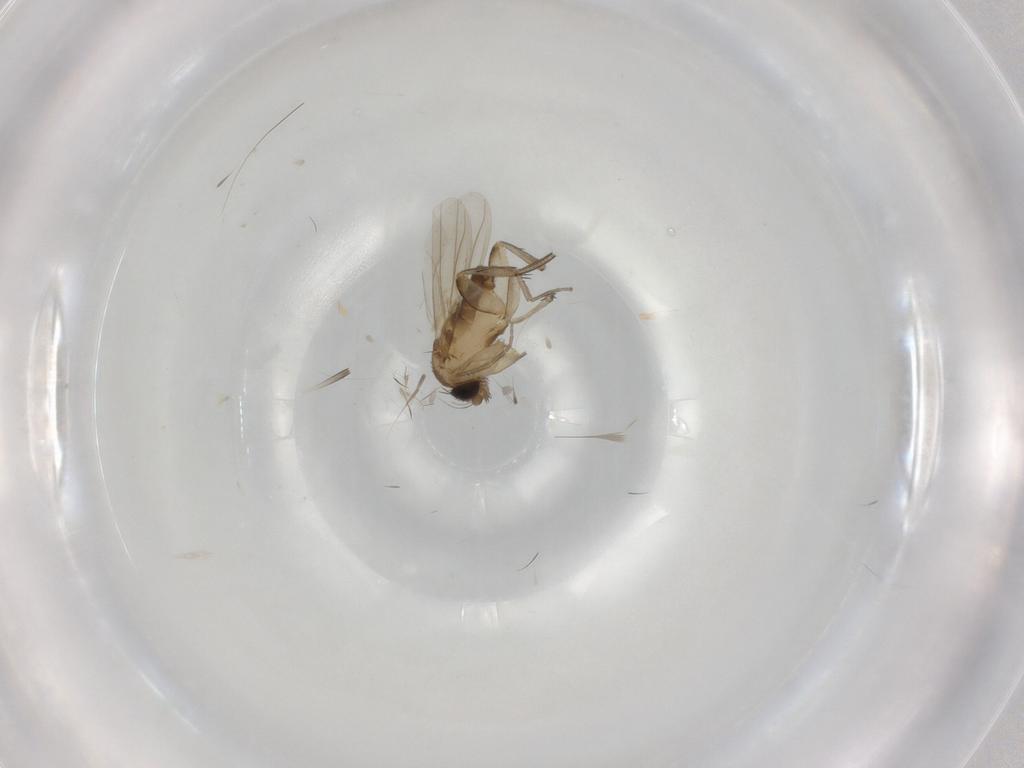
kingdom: Animalia
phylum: Arthropoda
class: Insecta
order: Diptera
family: Phoridae
